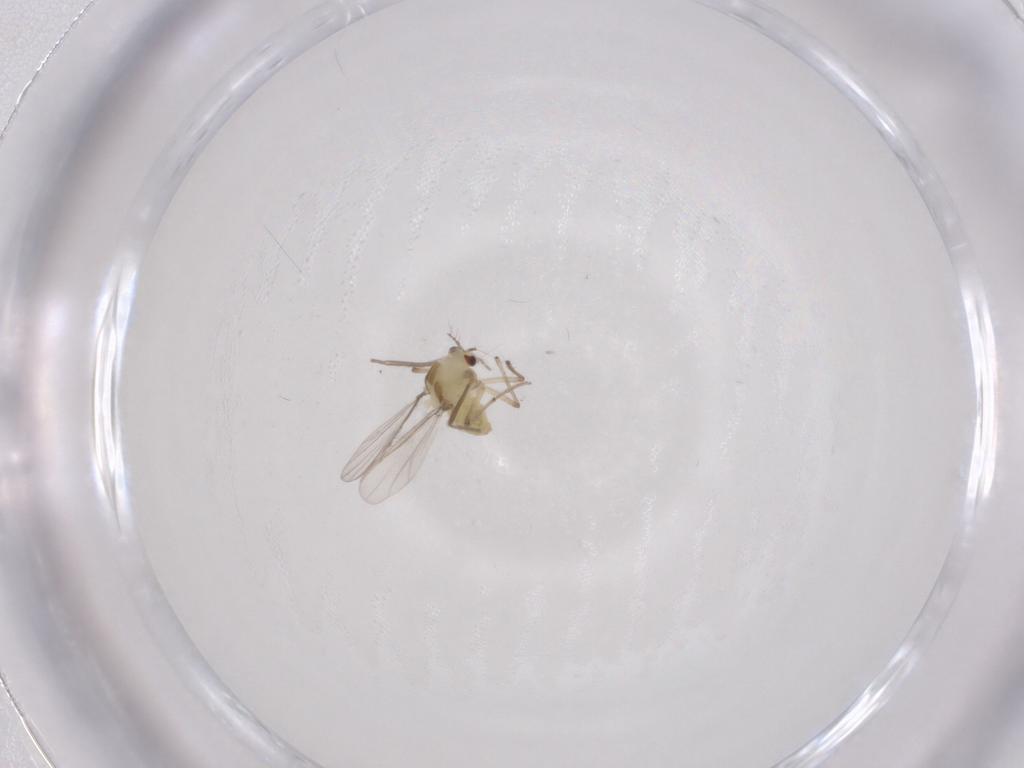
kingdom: Animalia
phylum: Arthropoda
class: Insecta
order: Diptera
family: Chironomidae
